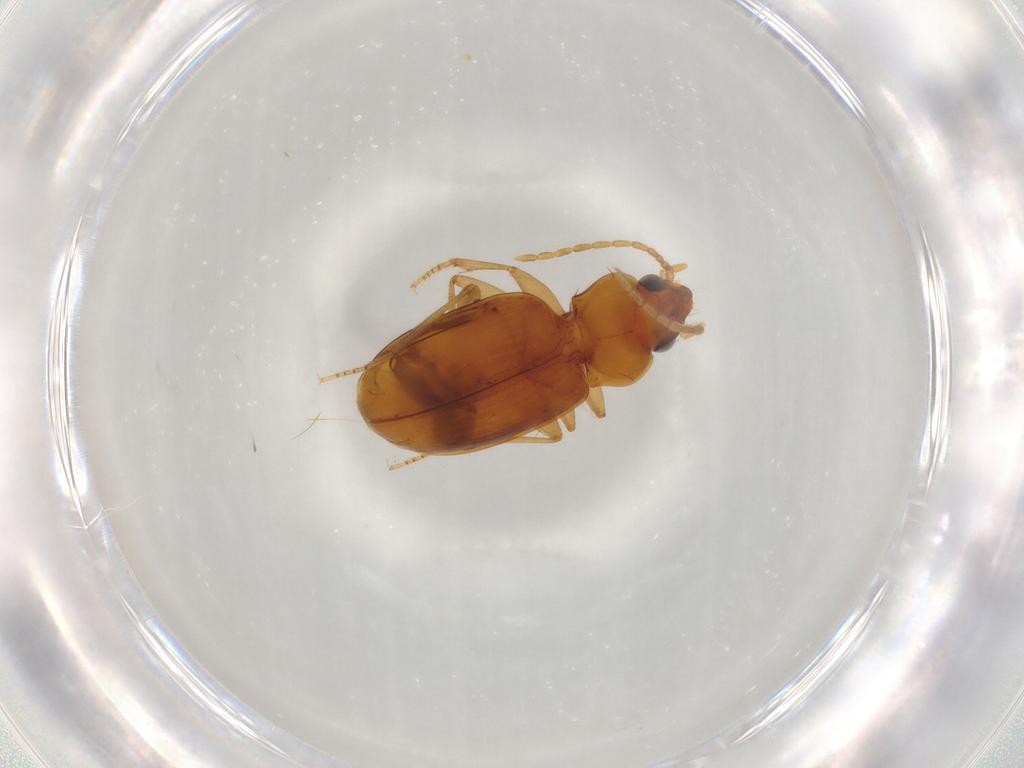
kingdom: Animalia
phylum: Arthropoda
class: Insecta
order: Coleoptera
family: Carabidae
